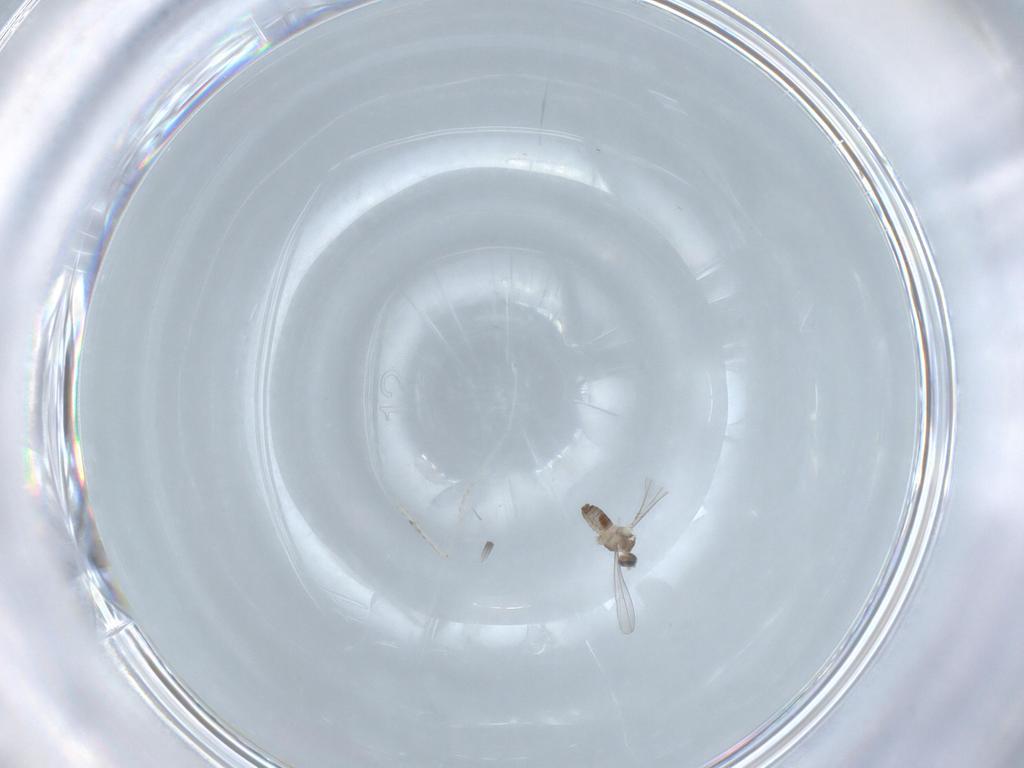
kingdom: Animalia
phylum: Arthropoda
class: Insecta
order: Diptera
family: Cecidomyiidae
